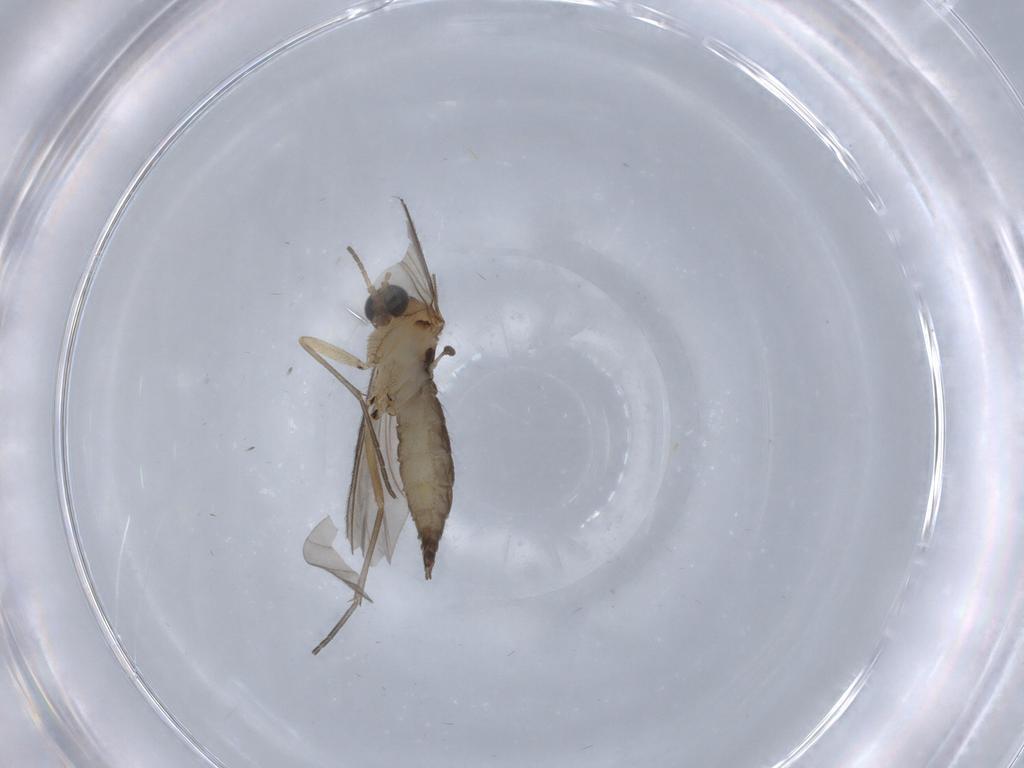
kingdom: Animalia
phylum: Arthropoda
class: Insecta
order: Diptera
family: Sciaridae
